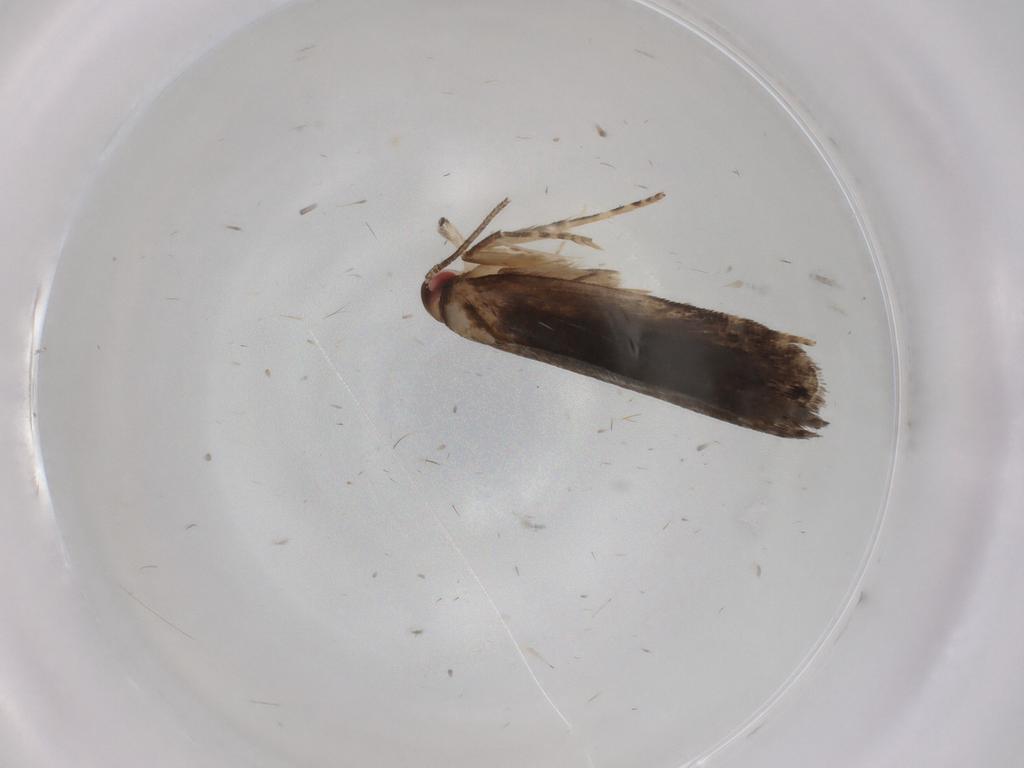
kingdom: Animalia
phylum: Arthropoda
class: Insecta
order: Lepidoptera
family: Gelechiidae
